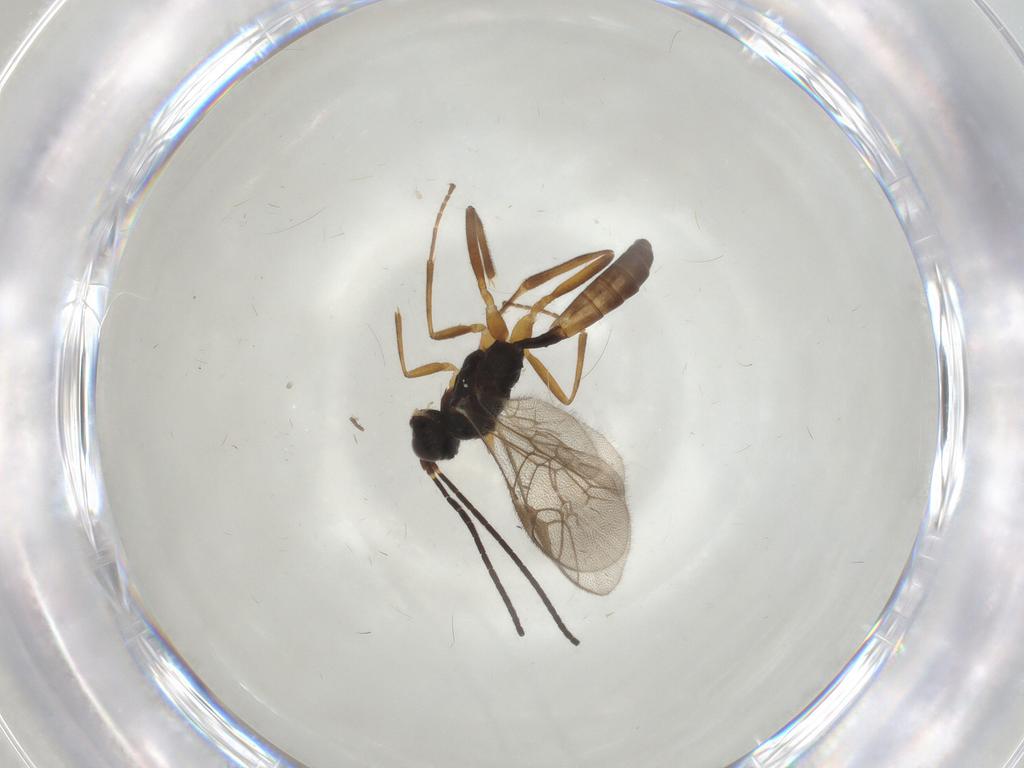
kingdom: Animalia
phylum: Arthropoda
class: Insecta
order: Hymenoptera
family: Ichneumonidae
